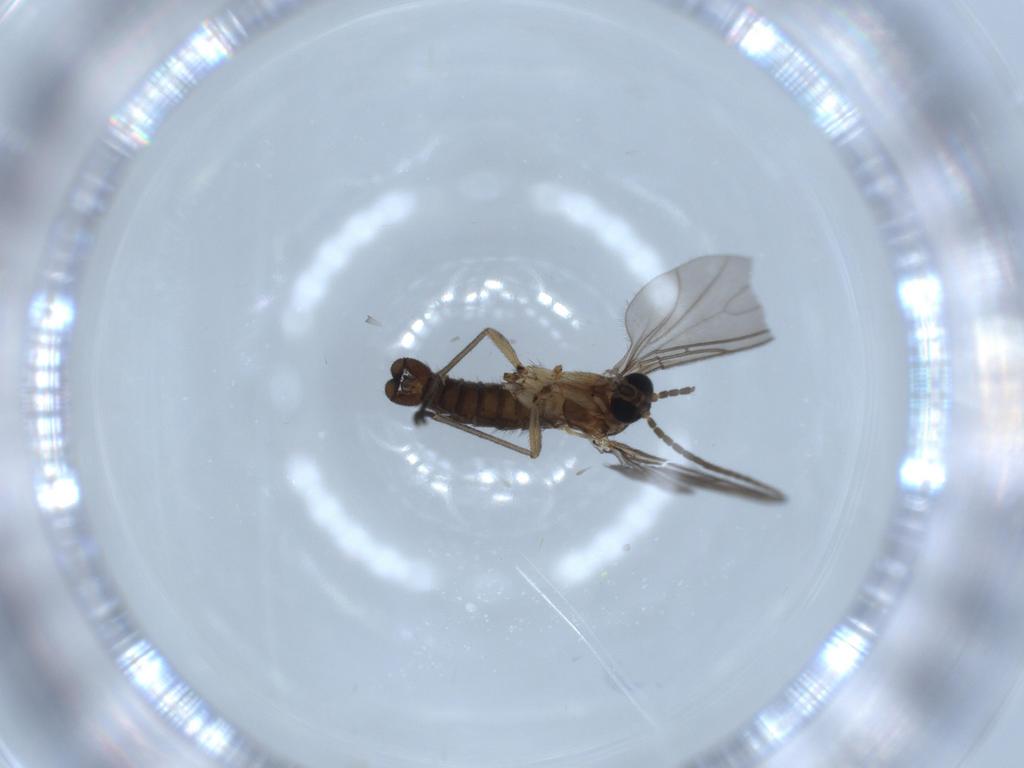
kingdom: Animalia
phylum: Arthropoda
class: Insecta
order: Diptera
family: Sciaridae
